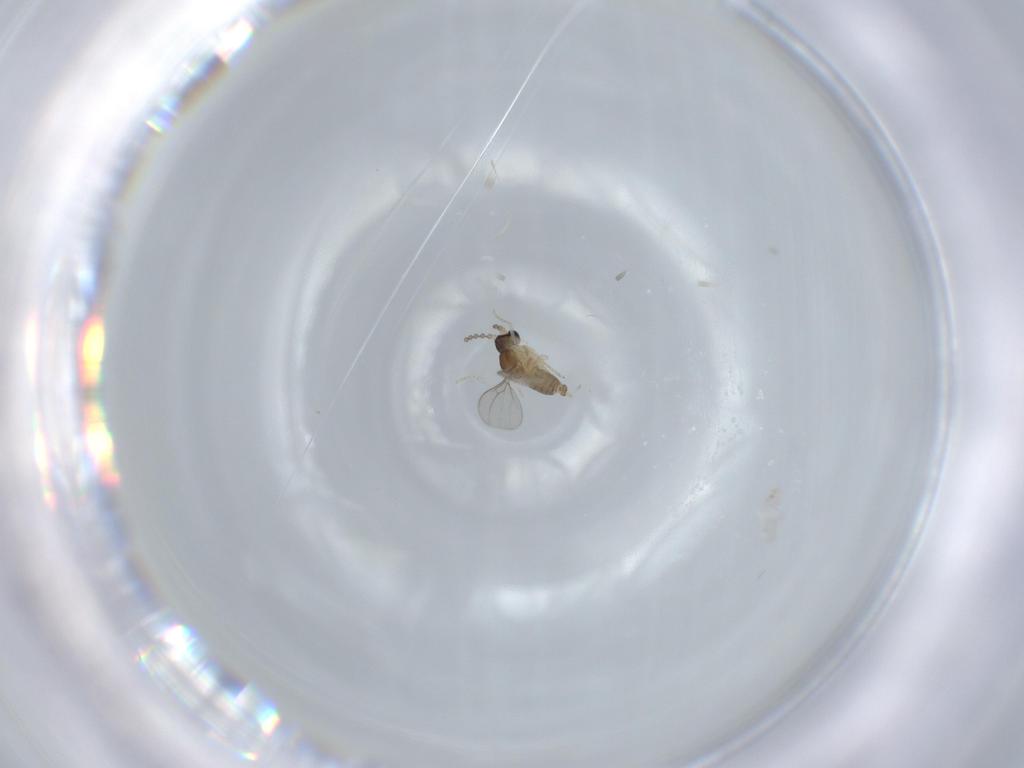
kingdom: Animalia
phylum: Arthropoda
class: Insecta
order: Diptera
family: Cecidomyiidae
